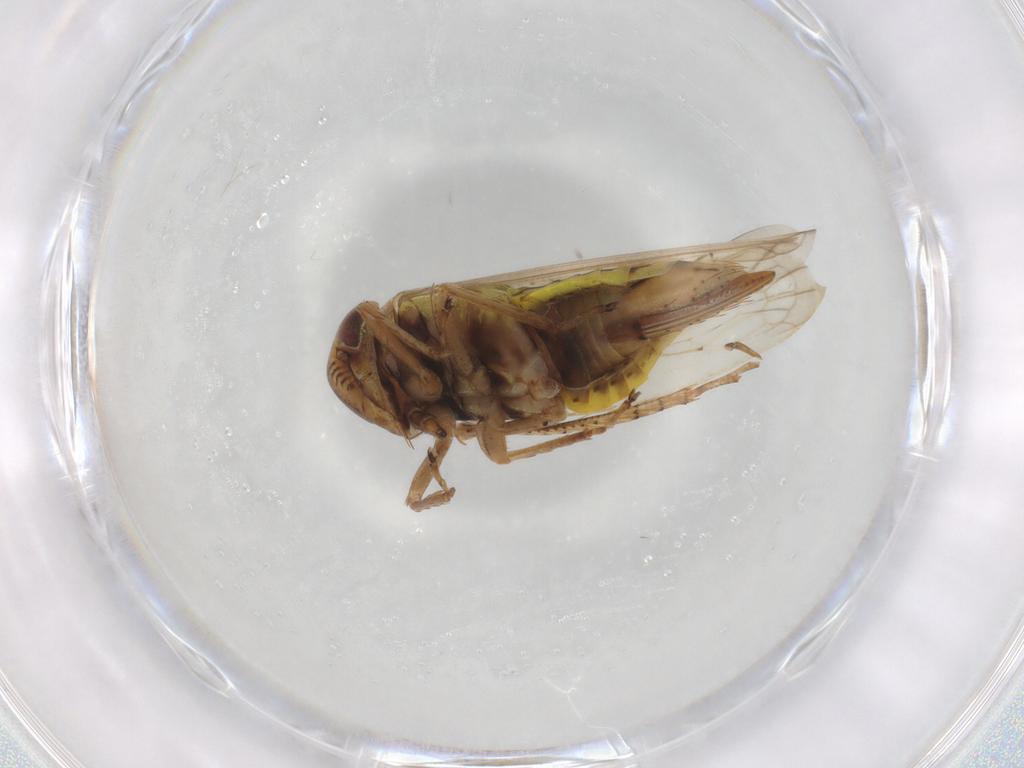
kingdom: Animalia
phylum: Arthropoda
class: Insecta
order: Hemiptera
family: Cicadellidae
